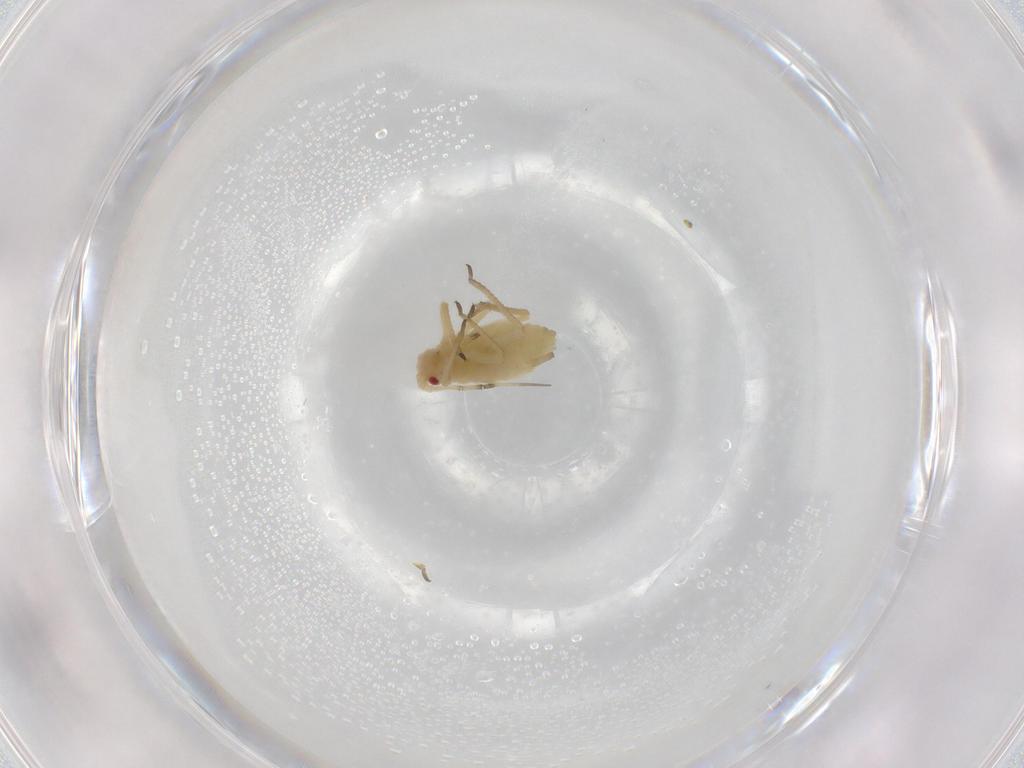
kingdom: Animalia
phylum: Arthropoda
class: Insecta
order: Hemiptera
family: Aphididae
